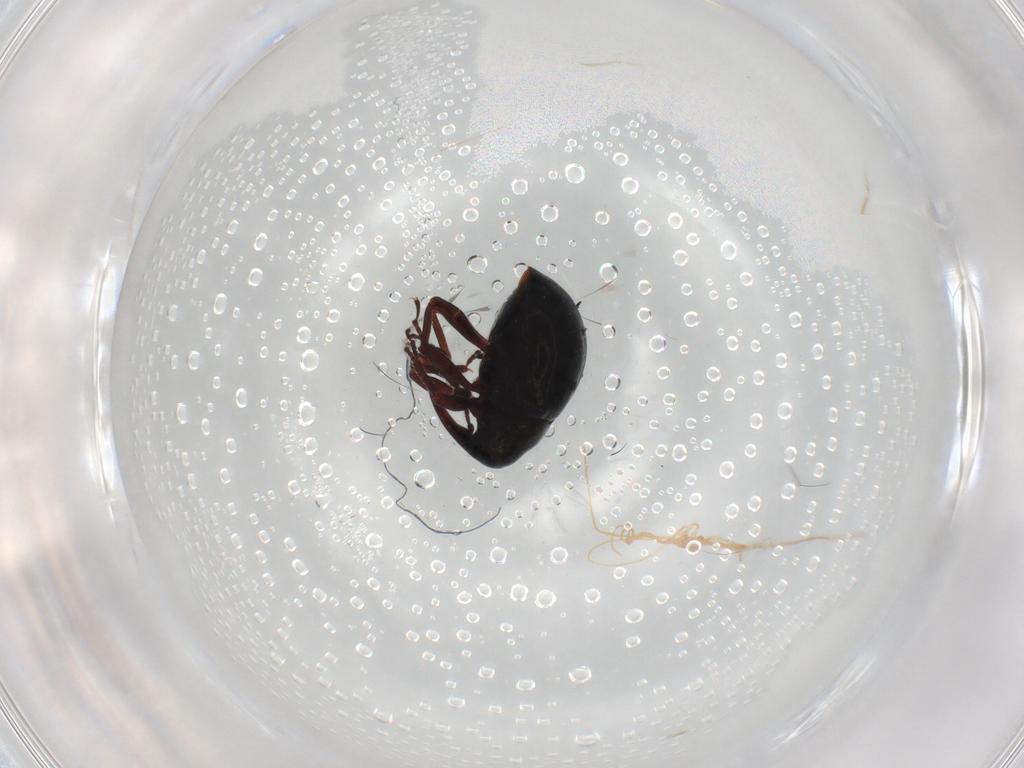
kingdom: Animalia
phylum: Arthropoda
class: Insecta
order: Coleoptera
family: Curculionidae
